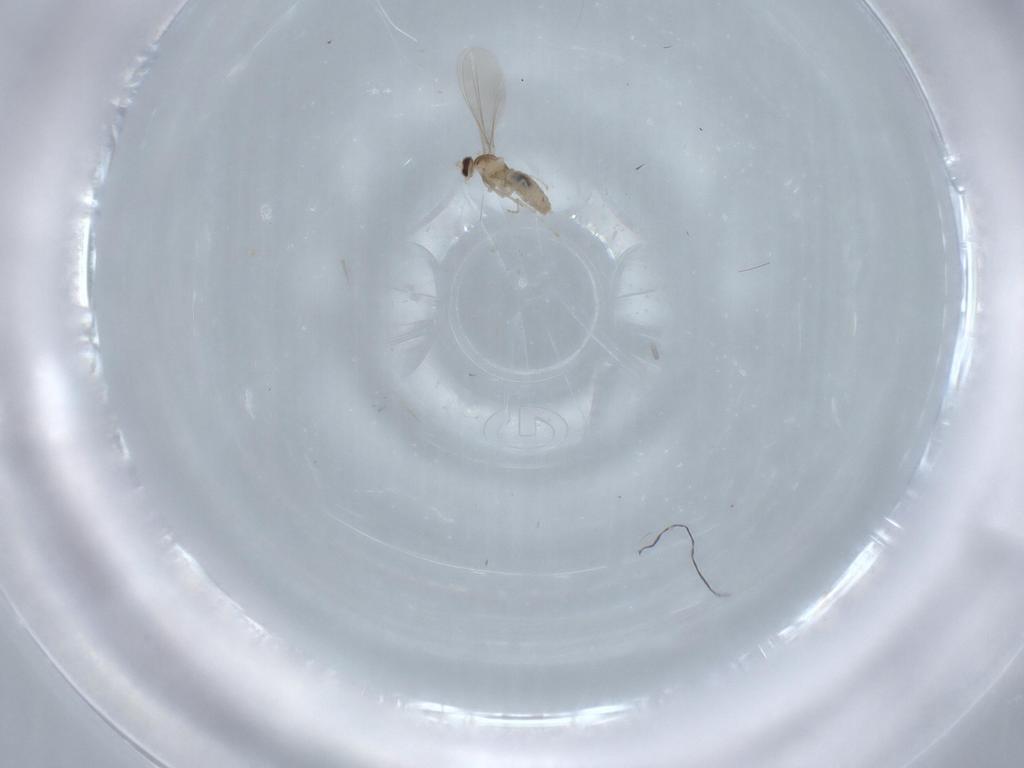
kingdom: Animalia
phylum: Arthropoda
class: Insecta
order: Diptera
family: Cecidomyiidae
